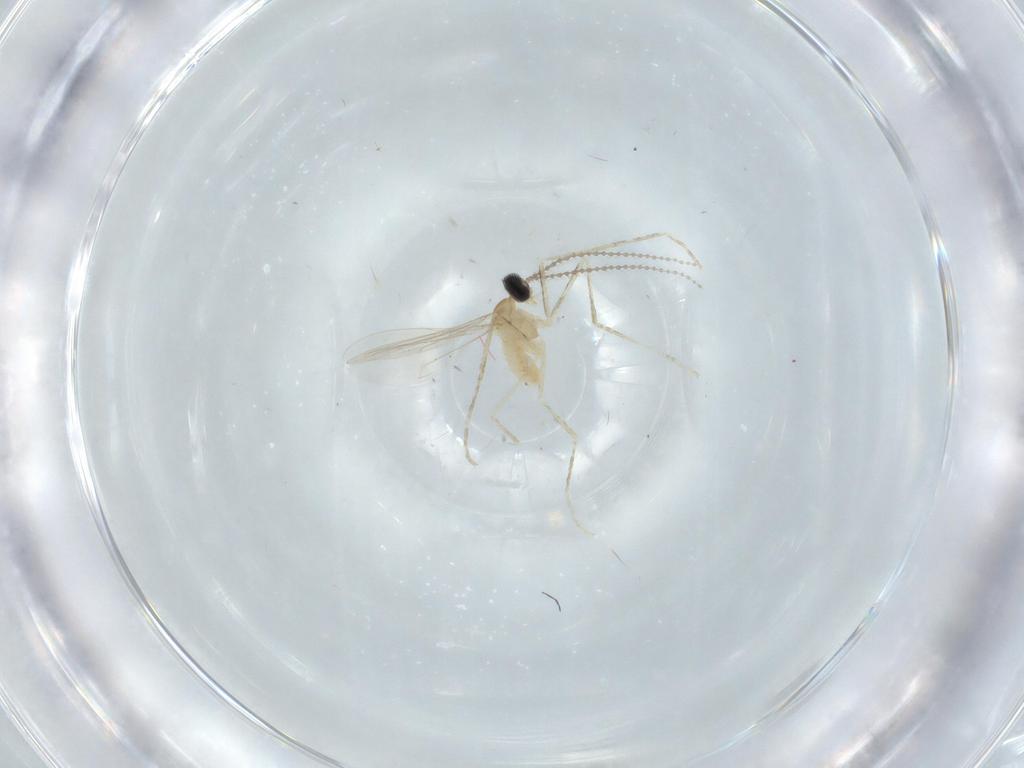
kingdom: Animalia
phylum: Arthropoda
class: Insecta
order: Diptera
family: Cecidomyiidae
